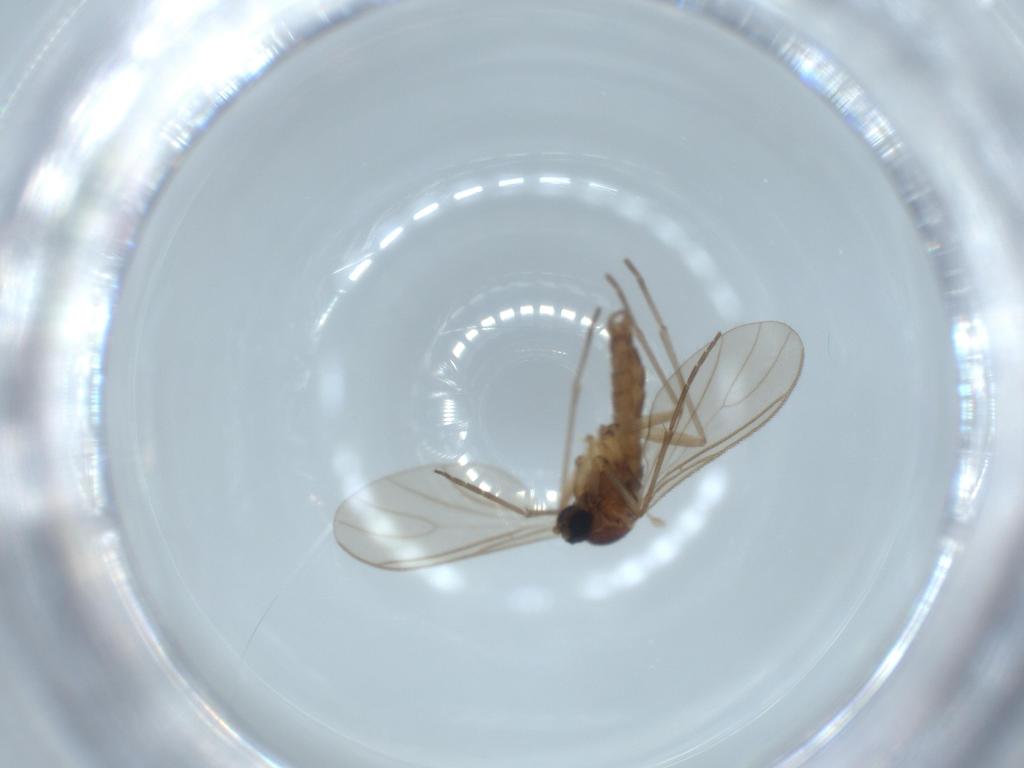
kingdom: Animalia
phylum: Arthropoda
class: Insecta
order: Diptera
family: Sciaridae
